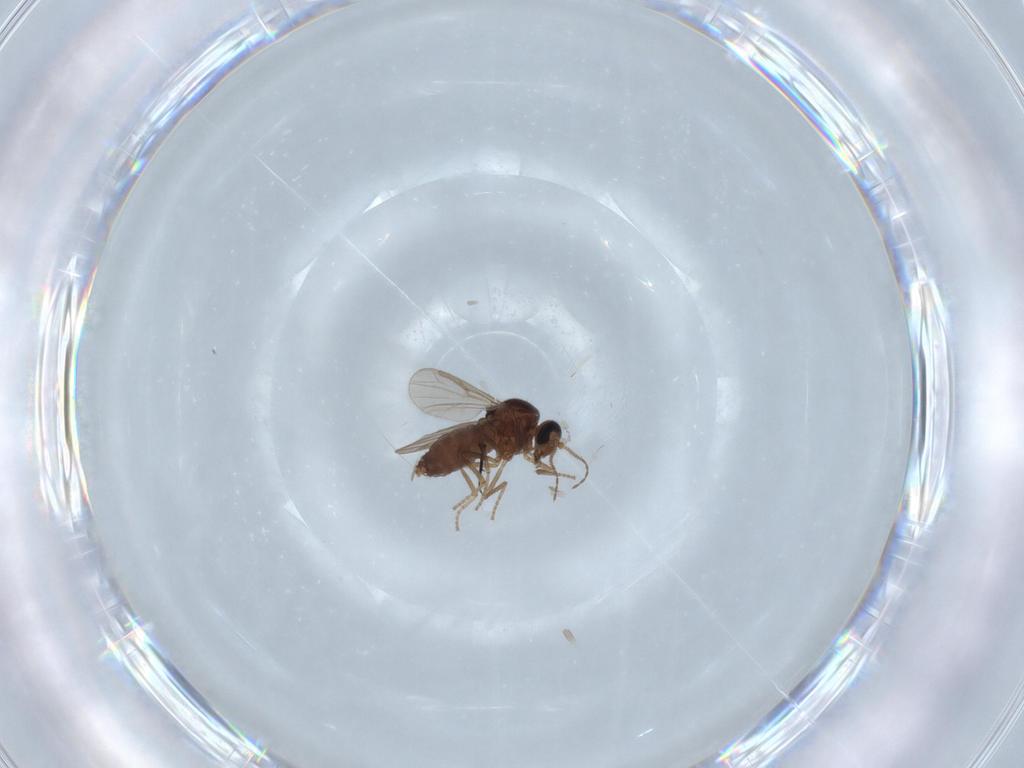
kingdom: Animalia
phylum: Arthropoda
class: Insecta
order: Diptera
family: Ceratopogonidae
